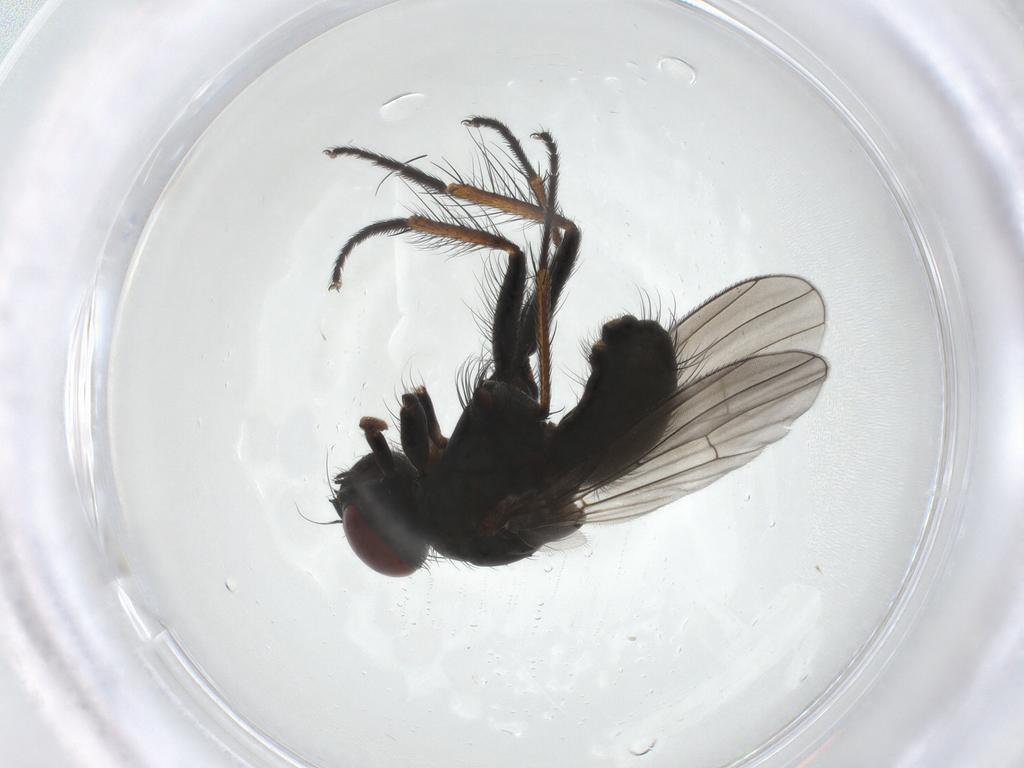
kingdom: Animalia
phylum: Arthropoda
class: Insecta
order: Diptera
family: Muscidae
